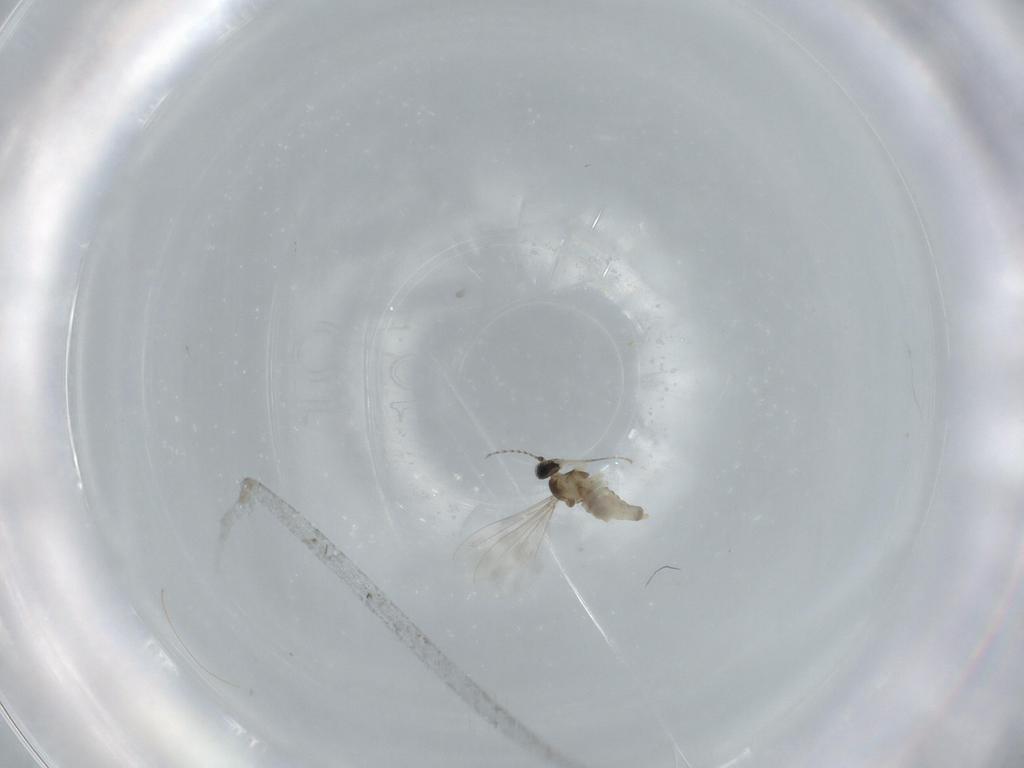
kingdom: Animalia
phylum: Arthropoda
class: Insecta
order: Diptera
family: Cecidomyiidae
